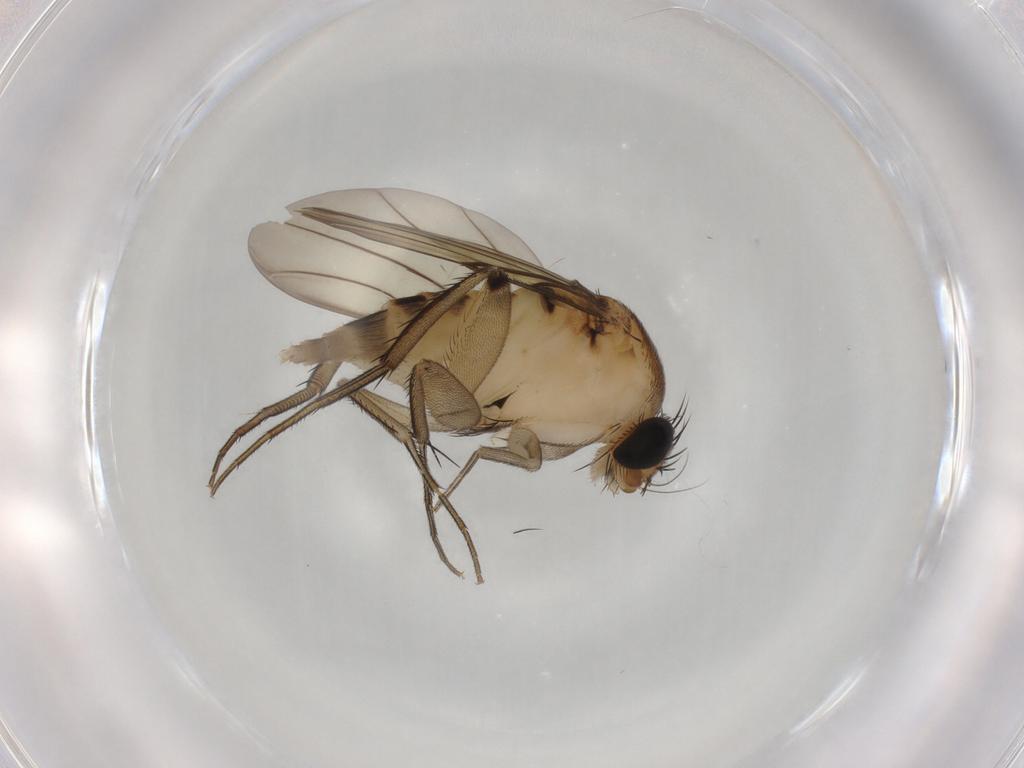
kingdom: Animalia
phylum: Arthropoda
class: Insecta
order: Diptera
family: Phoridae
